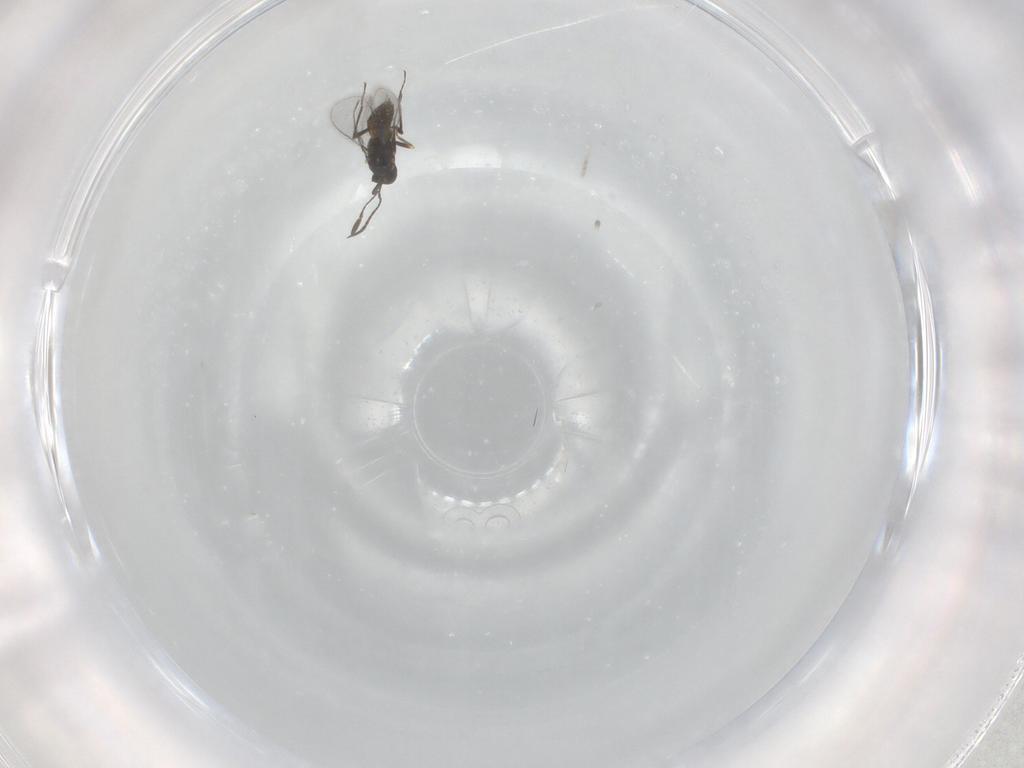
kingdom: Animalia
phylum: Arthropoda
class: Insecta
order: Hymenoptera
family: Mymaridae
